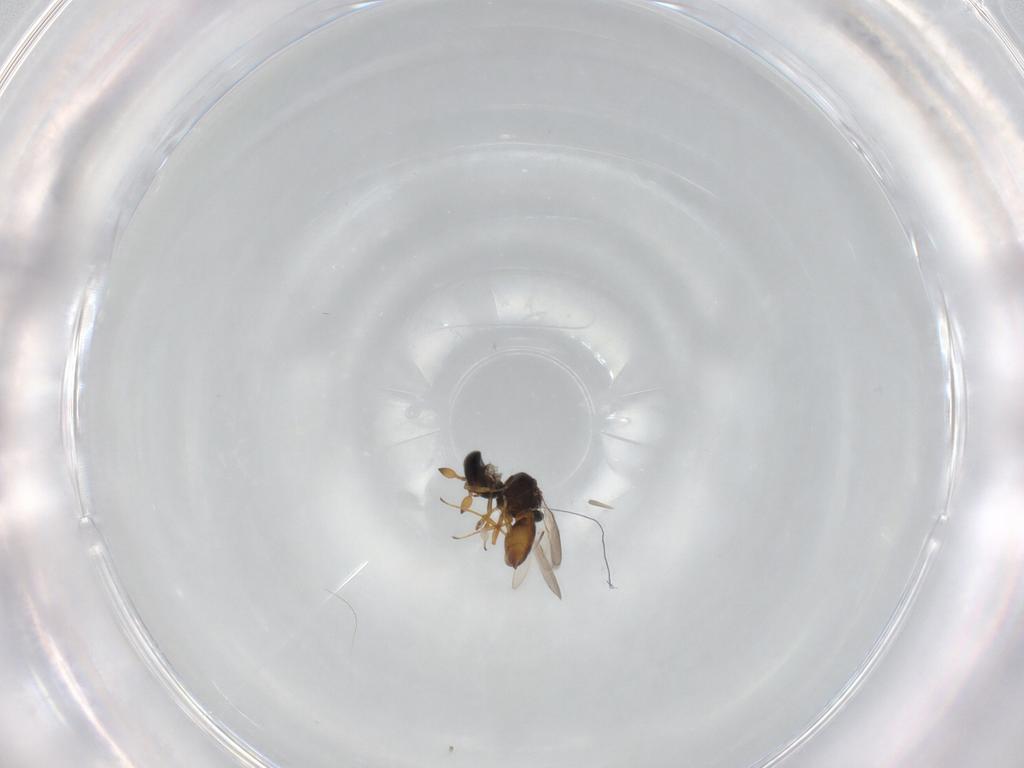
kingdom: Animalia
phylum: Arthropoda
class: Insecta
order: Hymenoptera
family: Scelionidae
